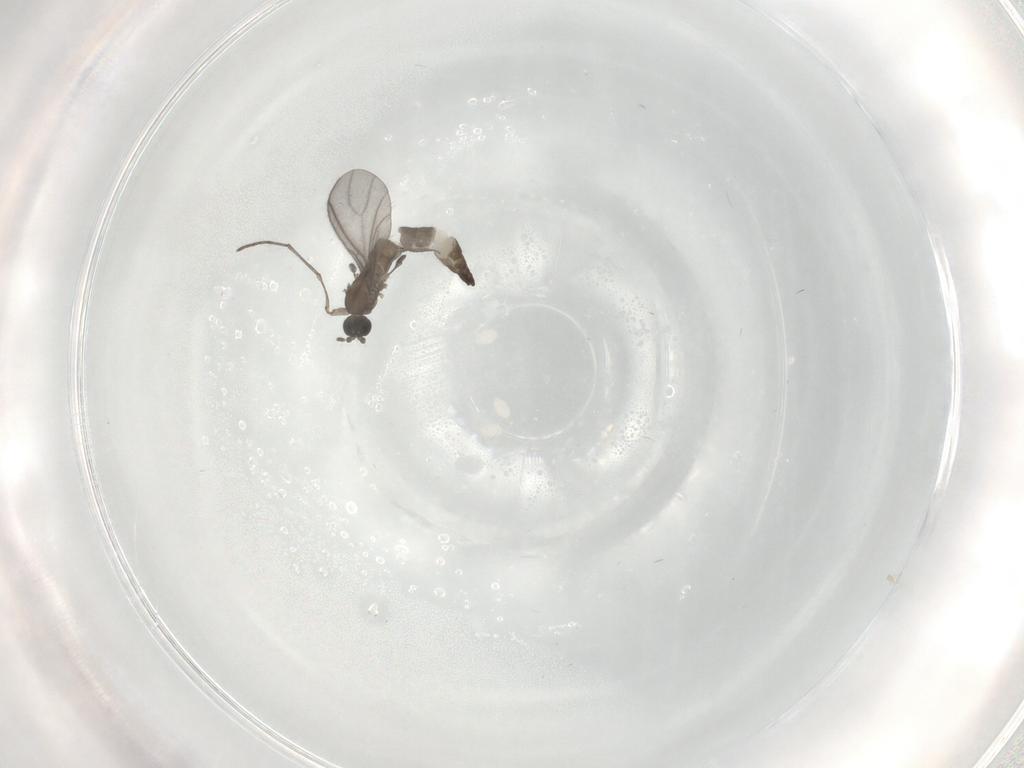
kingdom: Animalia
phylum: Arthropoda
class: Insecta
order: Diptera
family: Sciaridae
